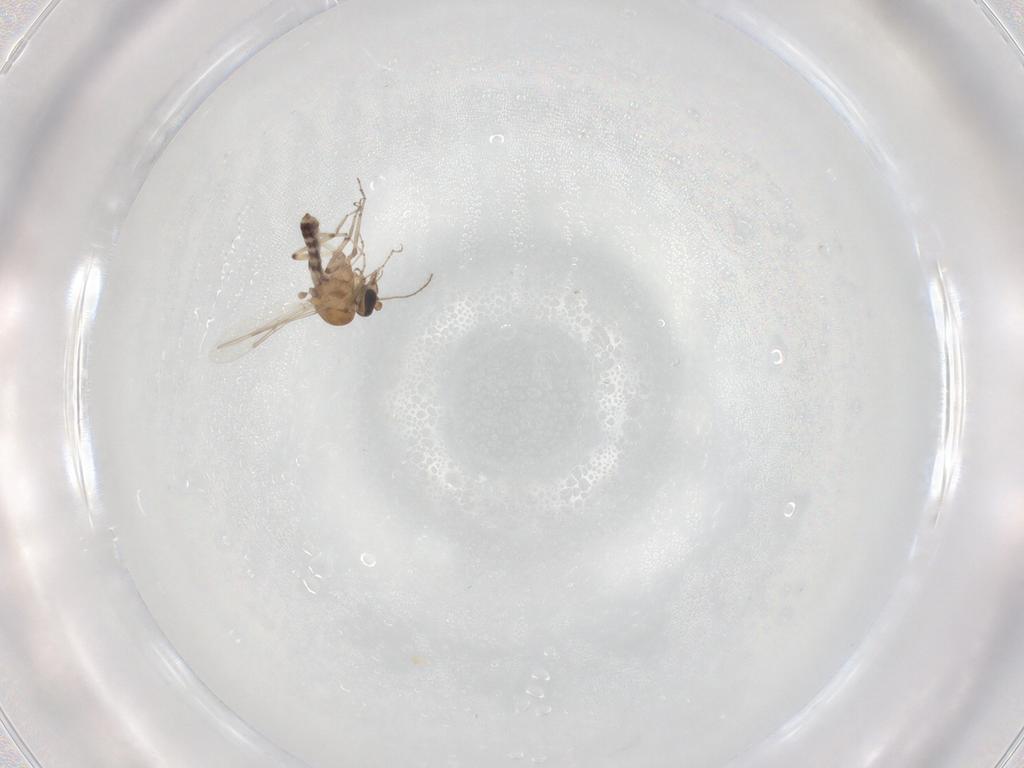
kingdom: Animalia
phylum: Arthropoda
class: Insecta
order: Diptera
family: Ceratopogonidae
